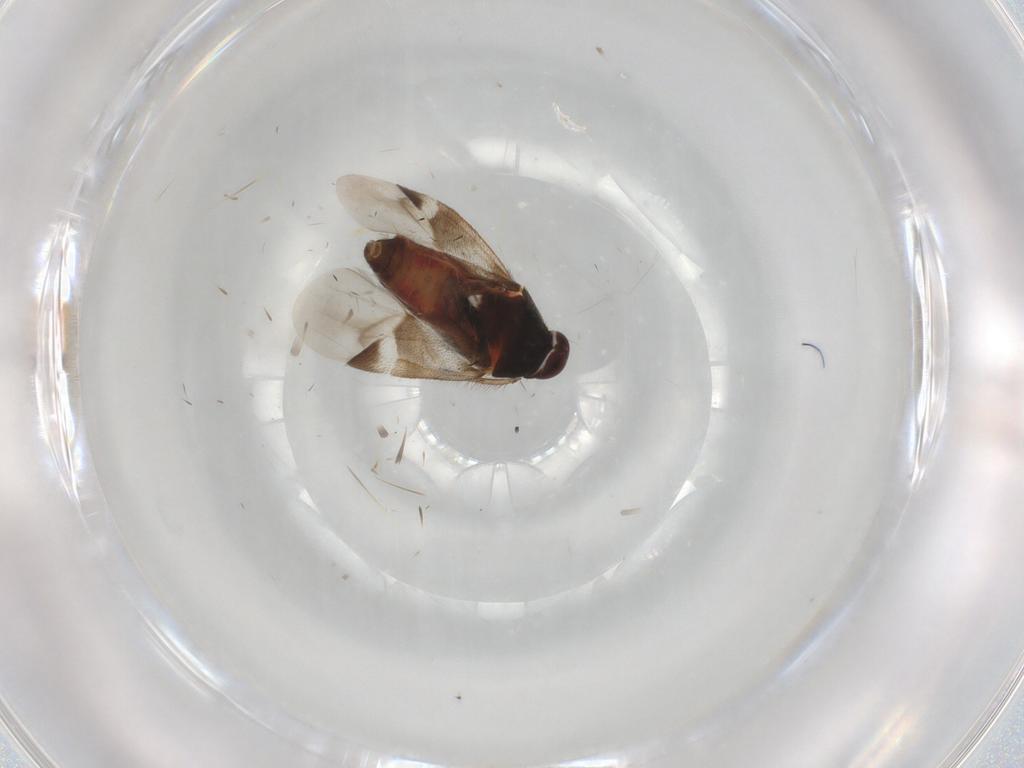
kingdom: Animalia
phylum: Arthropoda
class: Insecta
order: Hemiptera
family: Miridae
